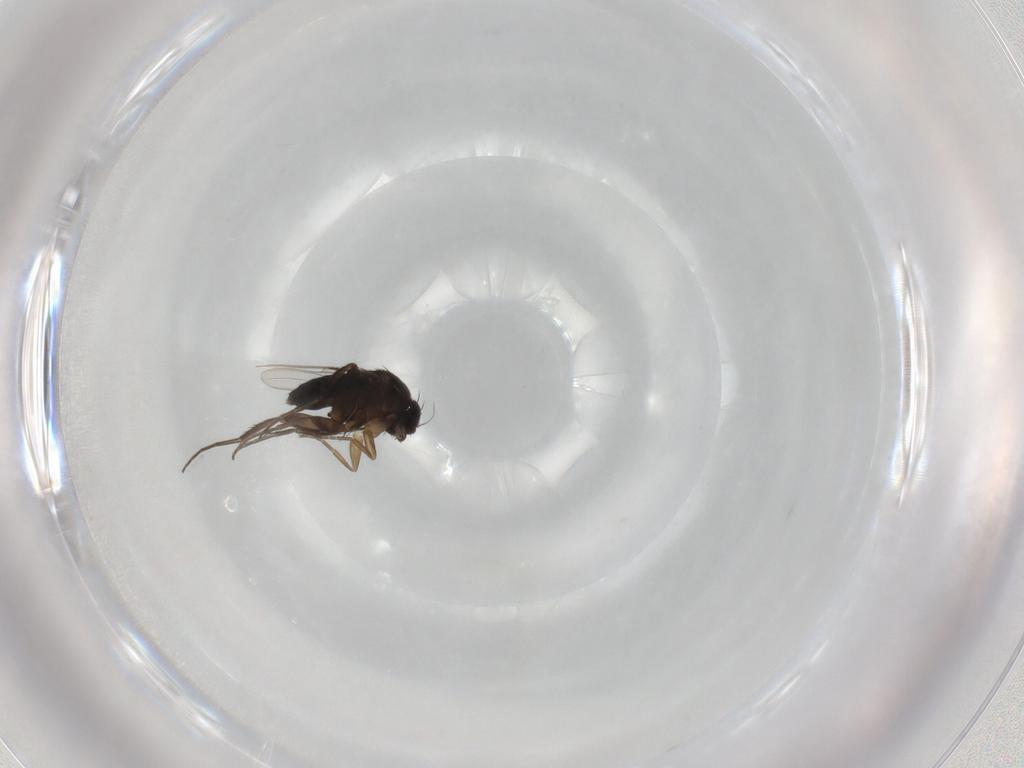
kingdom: Animalia
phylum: Arthropoda
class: Insecta
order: Diptera
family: Phoridae
